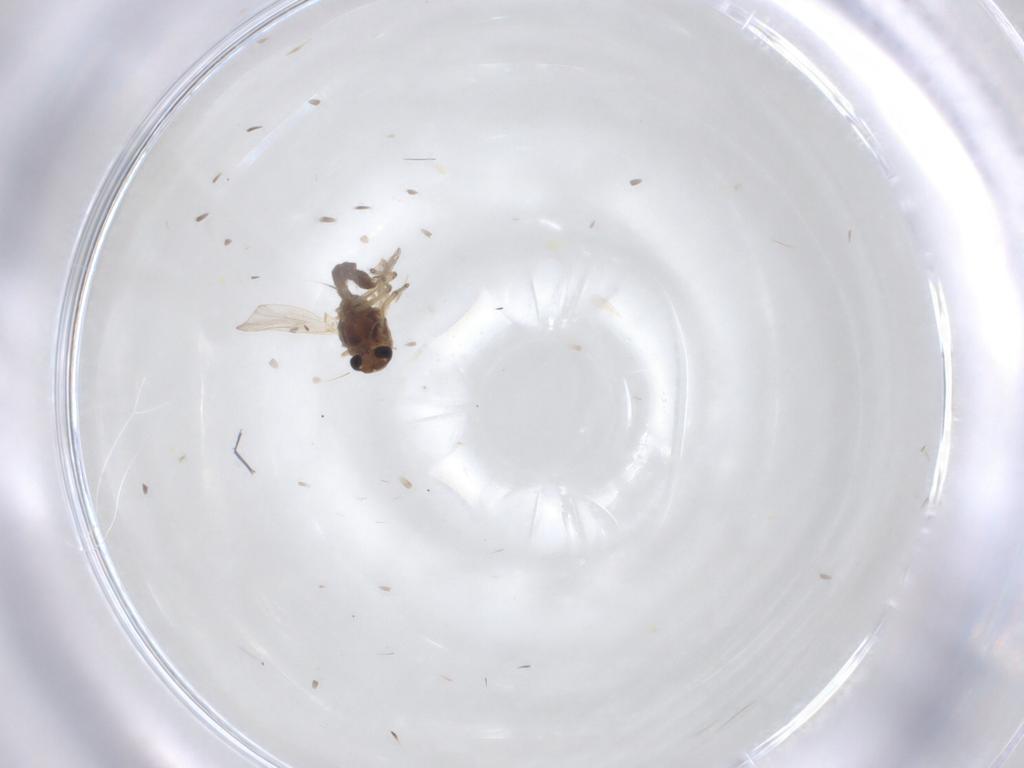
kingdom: Animalia
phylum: Arthropoda
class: Insecta
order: Diptera
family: Chironomidae
